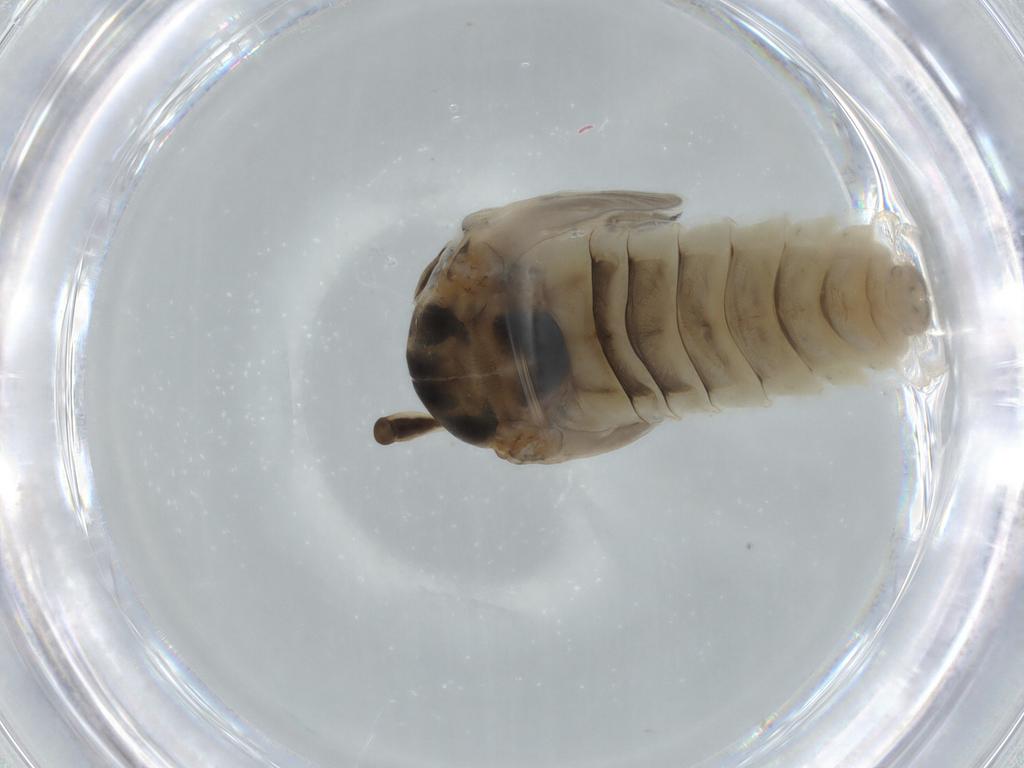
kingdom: Animalia
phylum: Arthropoda
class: Insecta
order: Diptera
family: Chironomidae
